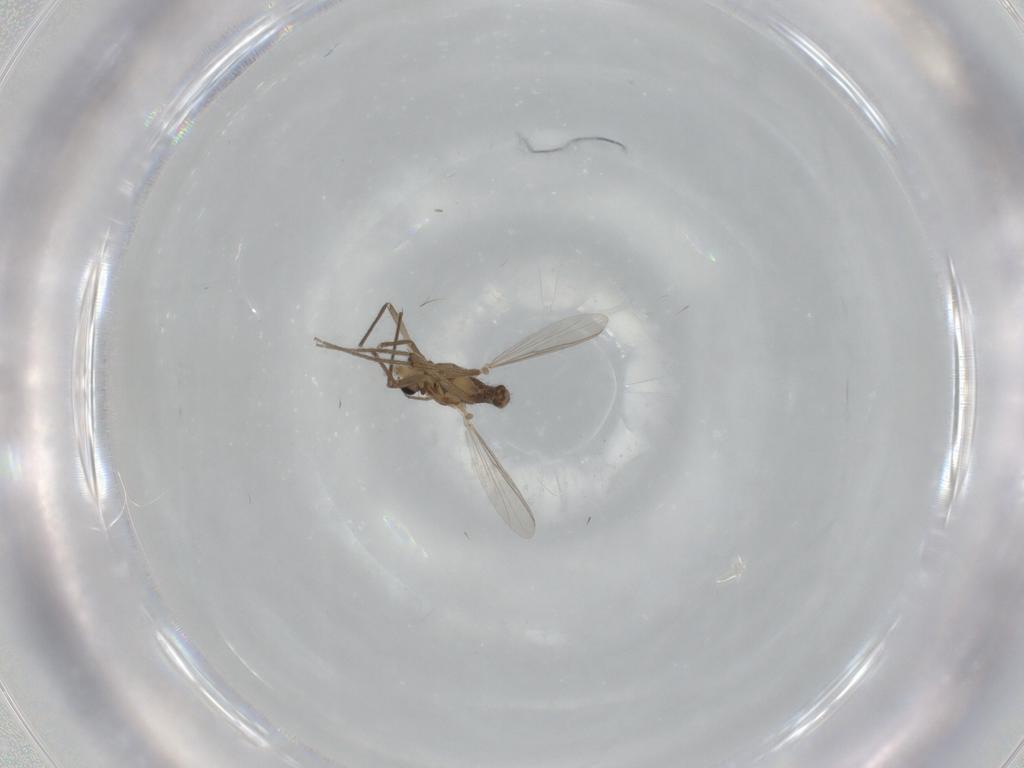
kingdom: Animalia
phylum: Arthropoda
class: Insecta
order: Diptera
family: Chironomidae
